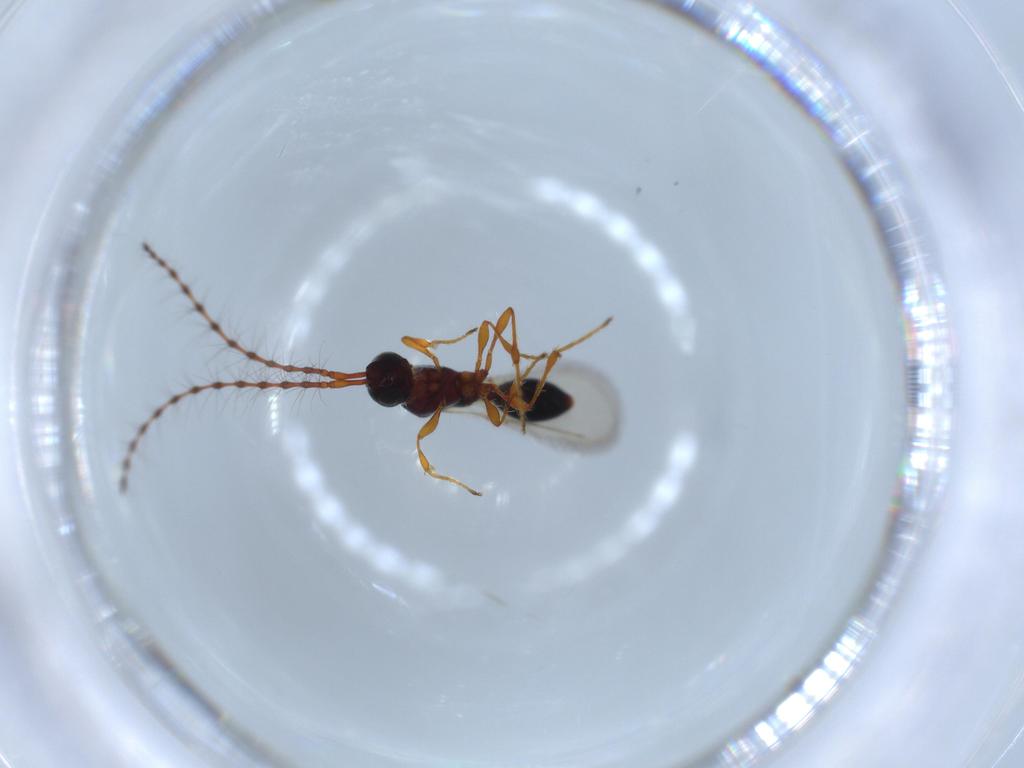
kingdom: Animalia
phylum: Arthropoda
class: Insecta
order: Hymenoptera
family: Diapriidae
